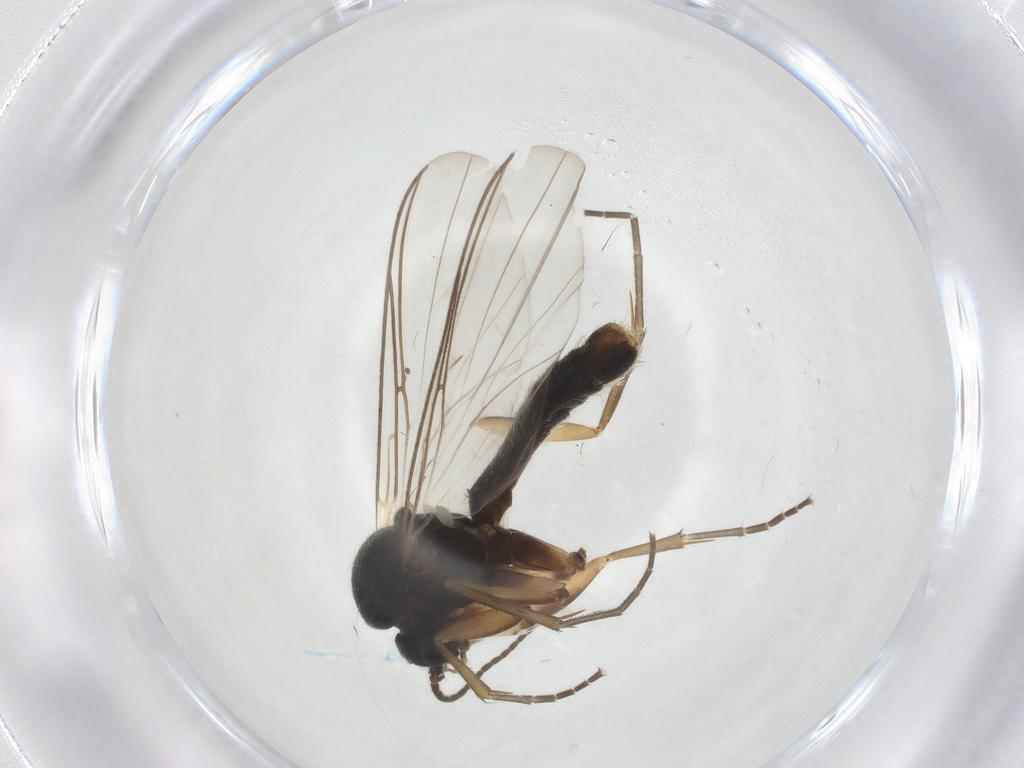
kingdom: Animalia
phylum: Arthropoda
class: Insecta
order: Diptera
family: Mycetophilidae
